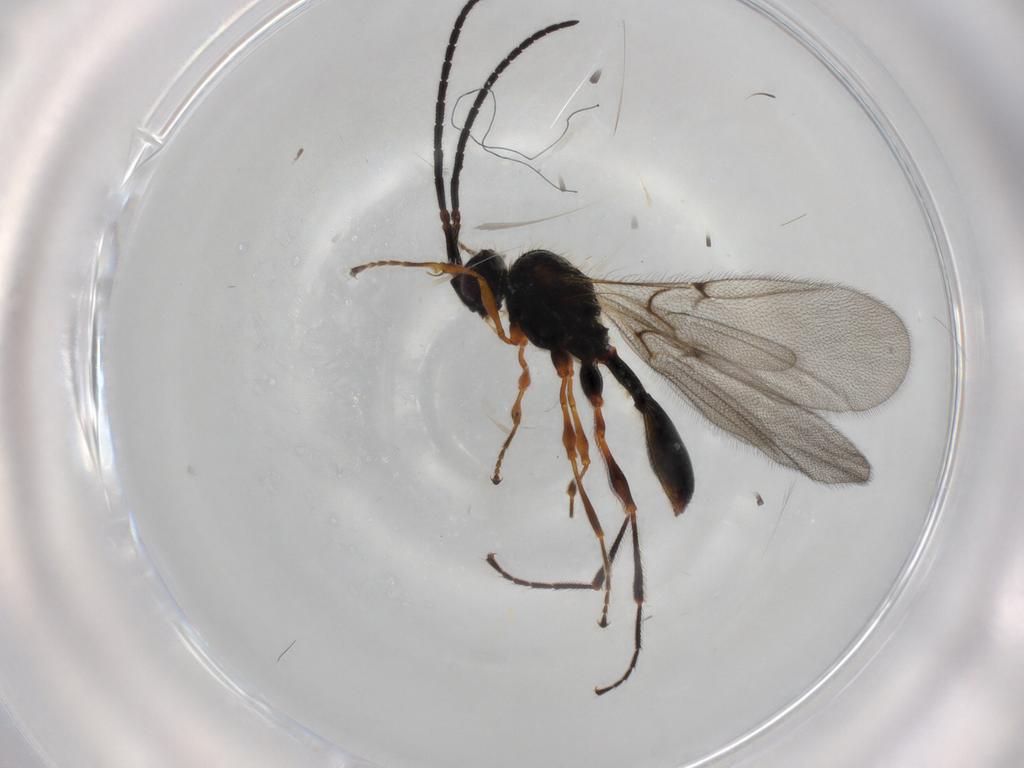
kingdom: Animalia
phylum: Arthropoda
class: Insecta
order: Hymenoptera
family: Diapriidae
